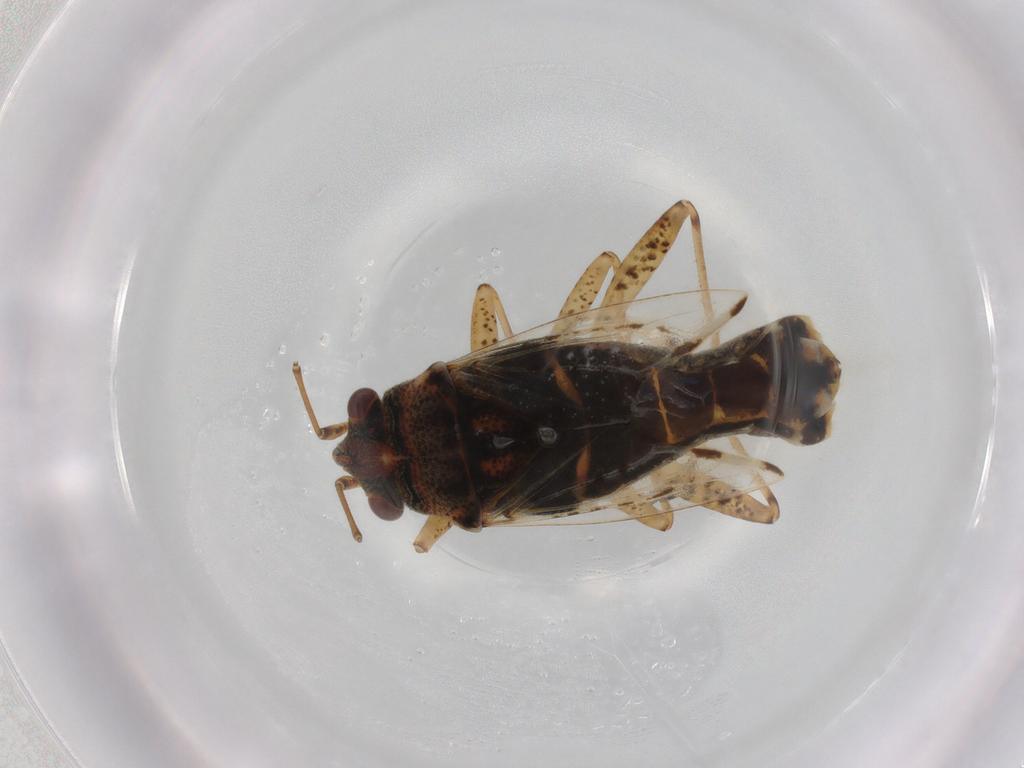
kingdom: Animalia
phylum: Arthropoda
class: Insecta
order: Hemiptera
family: Lygaeidae
